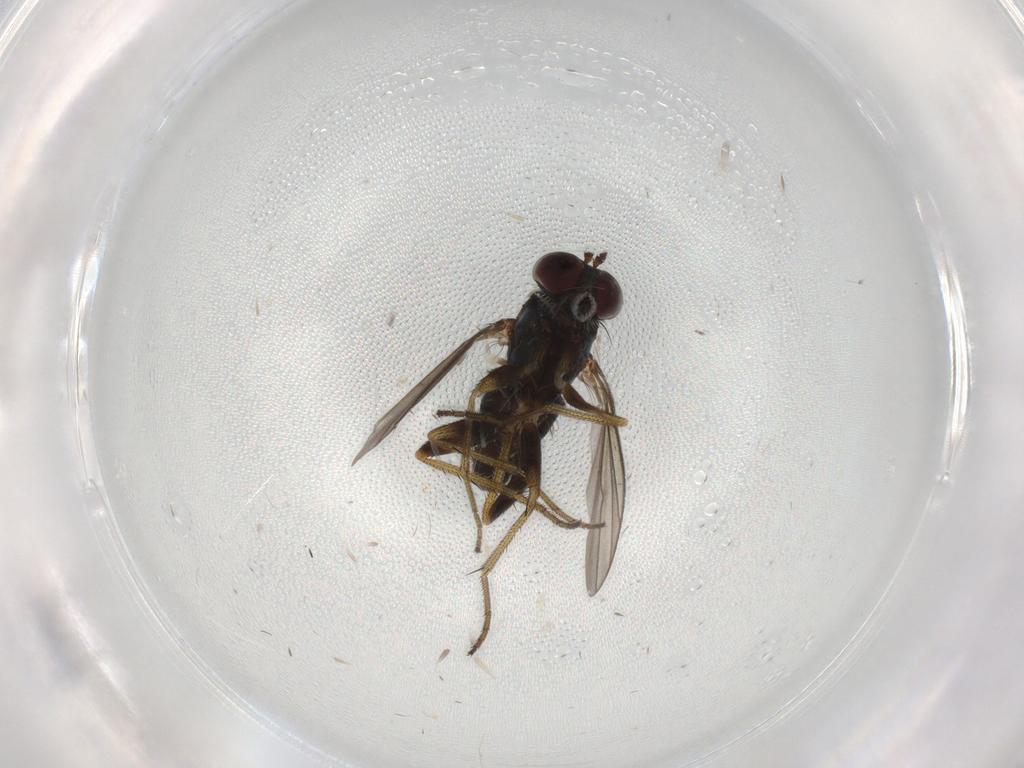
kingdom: Animalia
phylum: Arthropoda
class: Insecta
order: Diptera
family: Dolichopodidae
